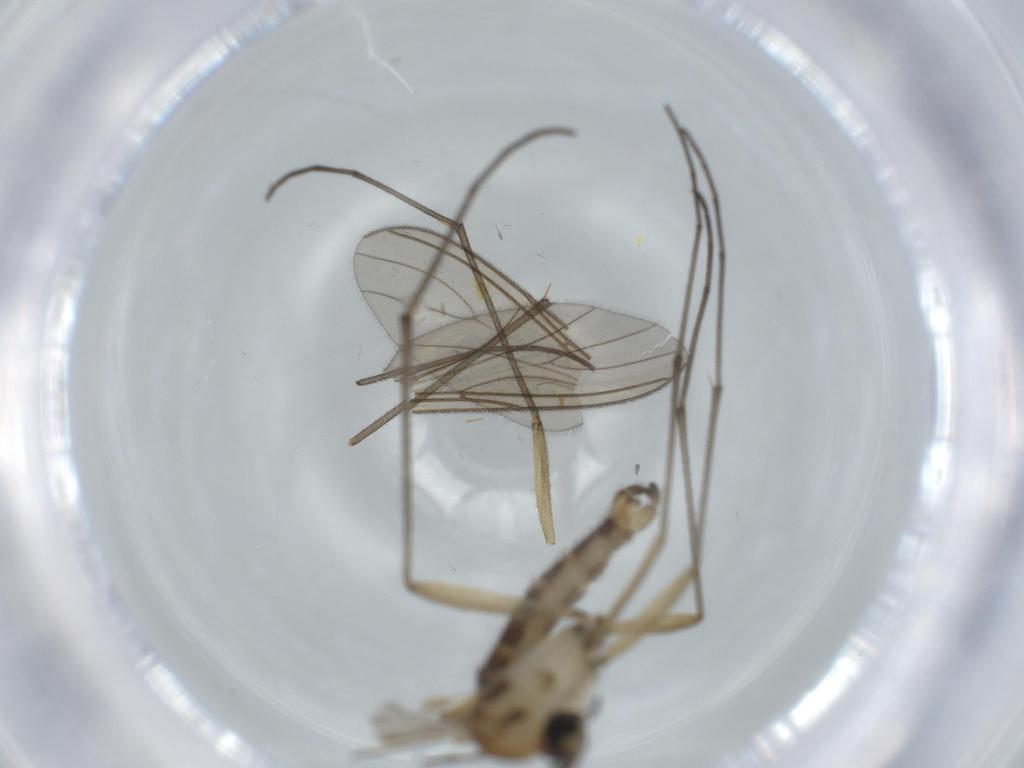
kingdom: Animalia
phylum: Arthropoda
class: Insecta
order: Diptera
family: Sciaridae
